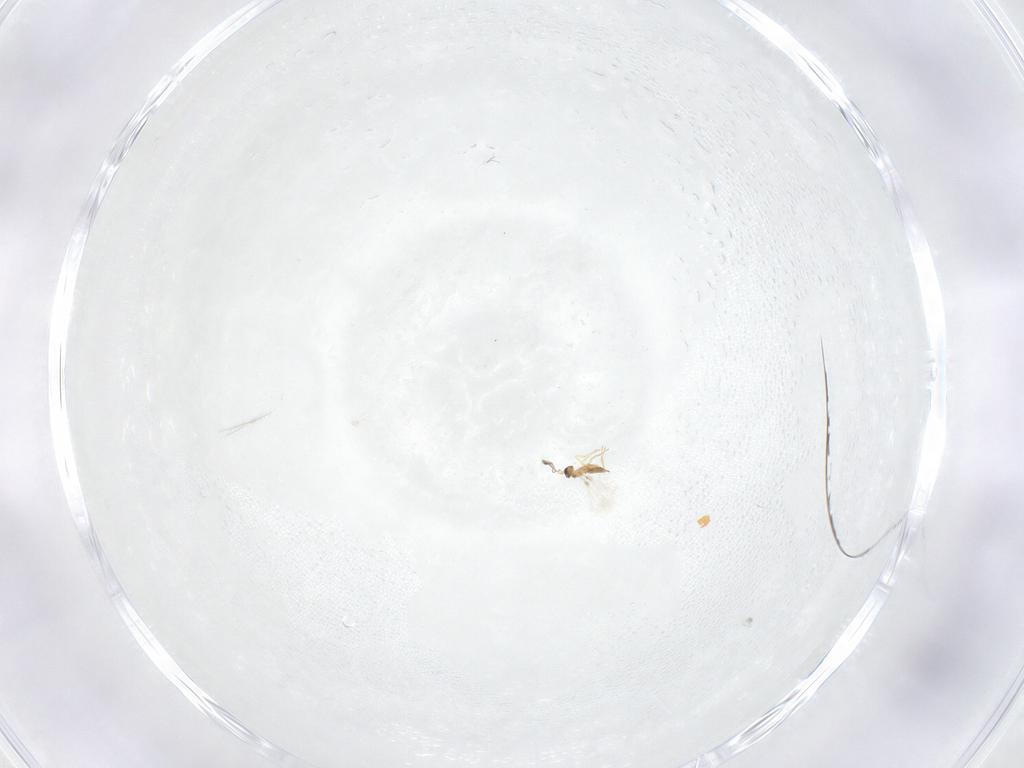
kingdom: Animalia
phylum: Arthropoda
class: Insecta
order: Hymenoptera
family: Mymaridae
